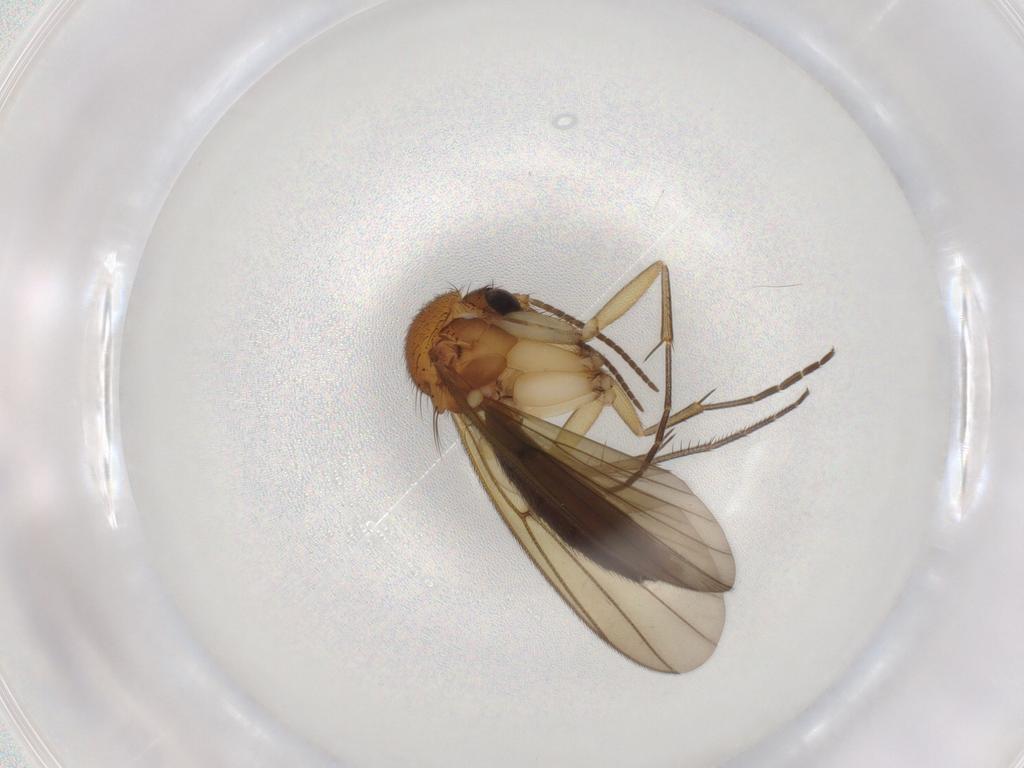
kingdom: Animalia
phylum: Arthropoda
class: Insecta
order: Diptera
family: Mycetophilidae
